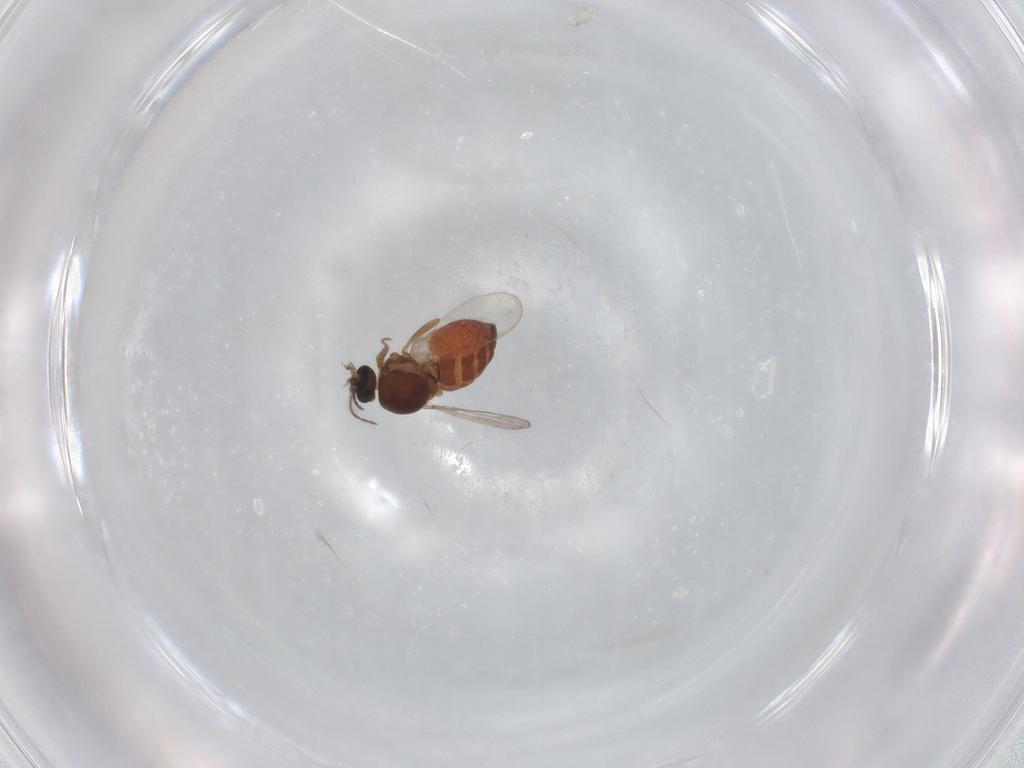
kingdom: Animalia
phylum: Arthropoda
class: Insecta
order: Diptera
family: Ceratopogonidae
